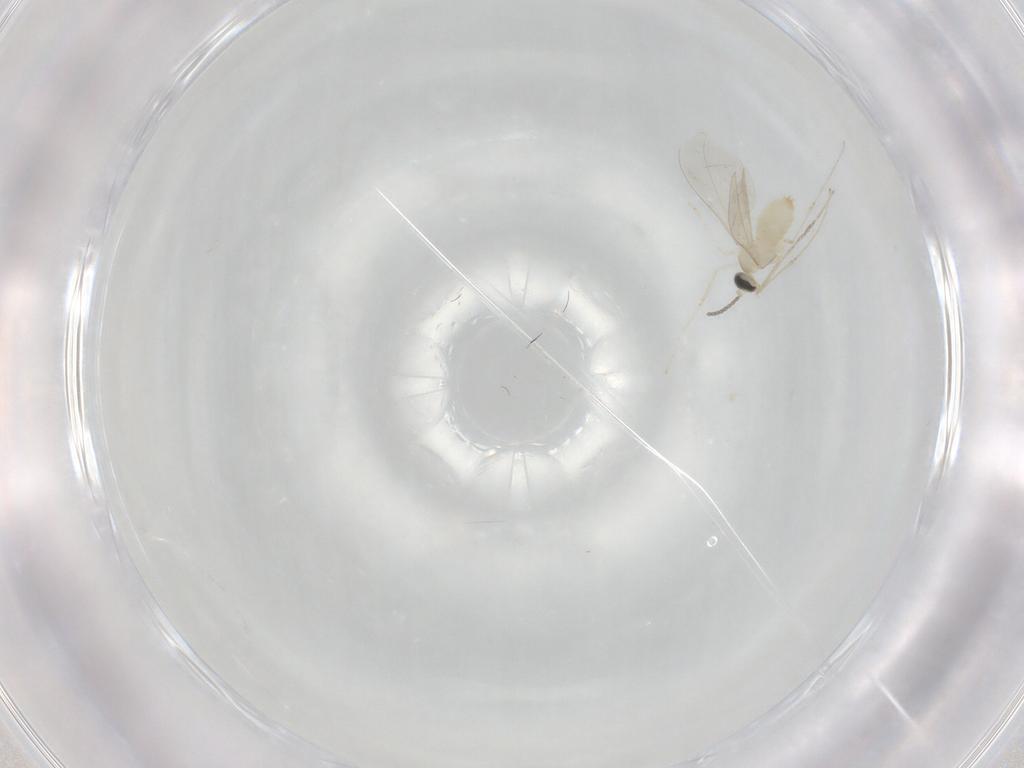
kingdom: Animalia
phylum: Arthropoda
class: Insecta
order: Diptera
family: Cecidomyiidae
